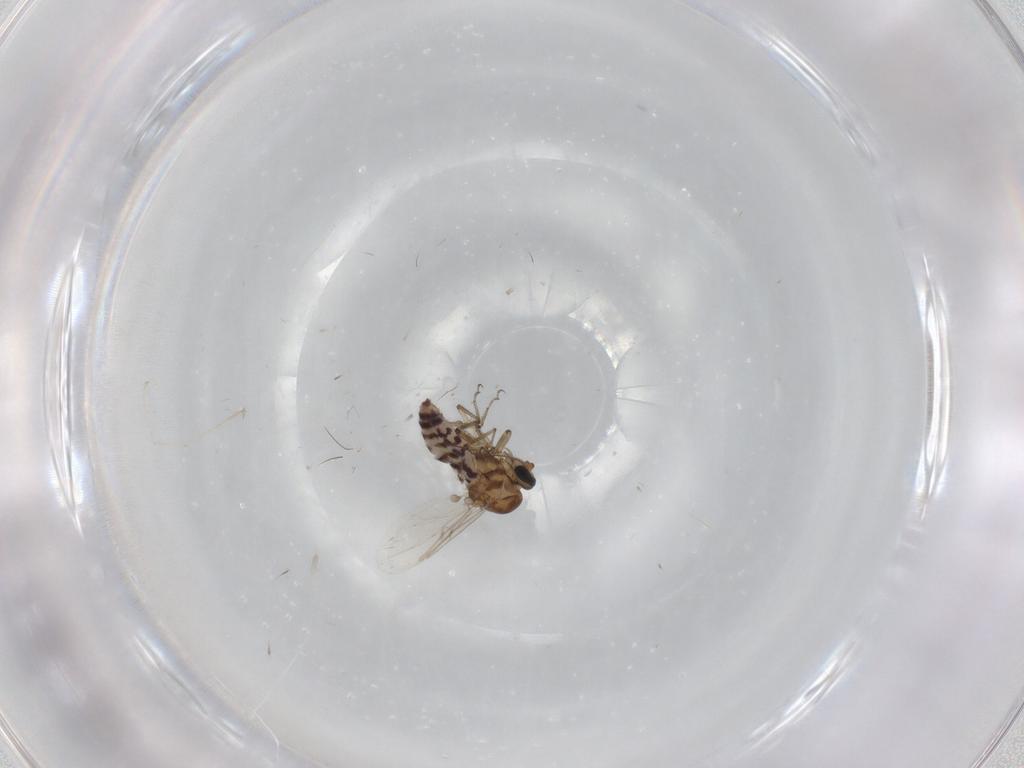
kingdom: Animalia
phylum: Arthropoda
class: Insecta
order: Diptera
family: Ceratopogonidae
